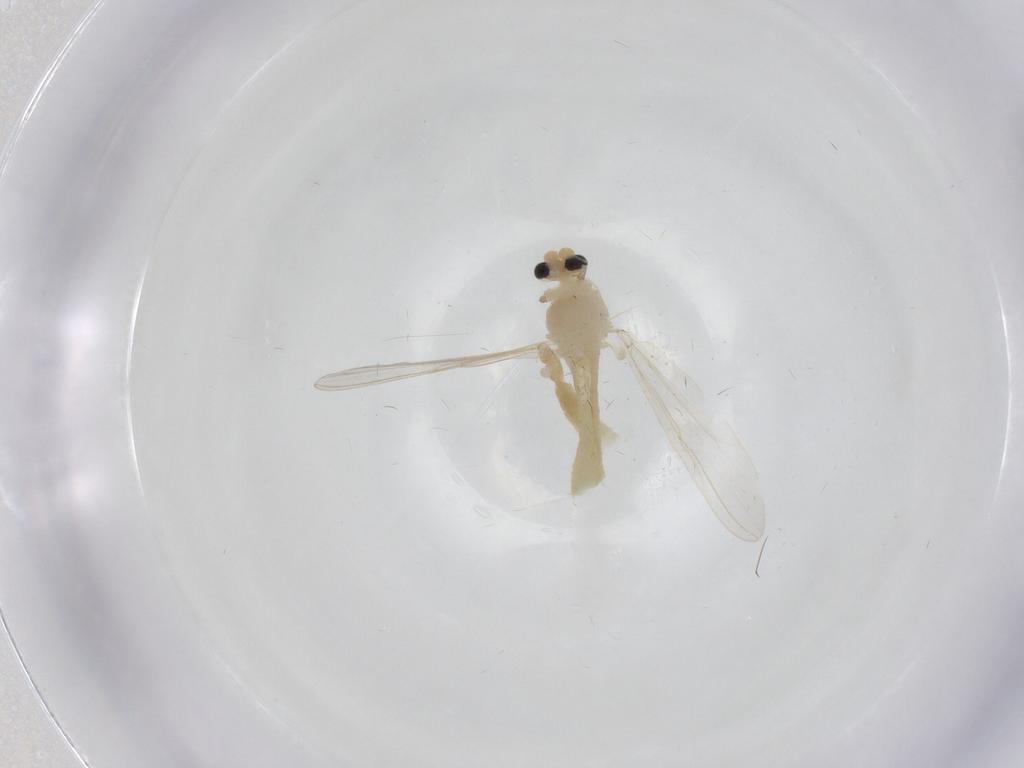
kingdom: Animalia
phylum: Arthropoda
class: Insecta
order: Diptera
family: Chironomidae
